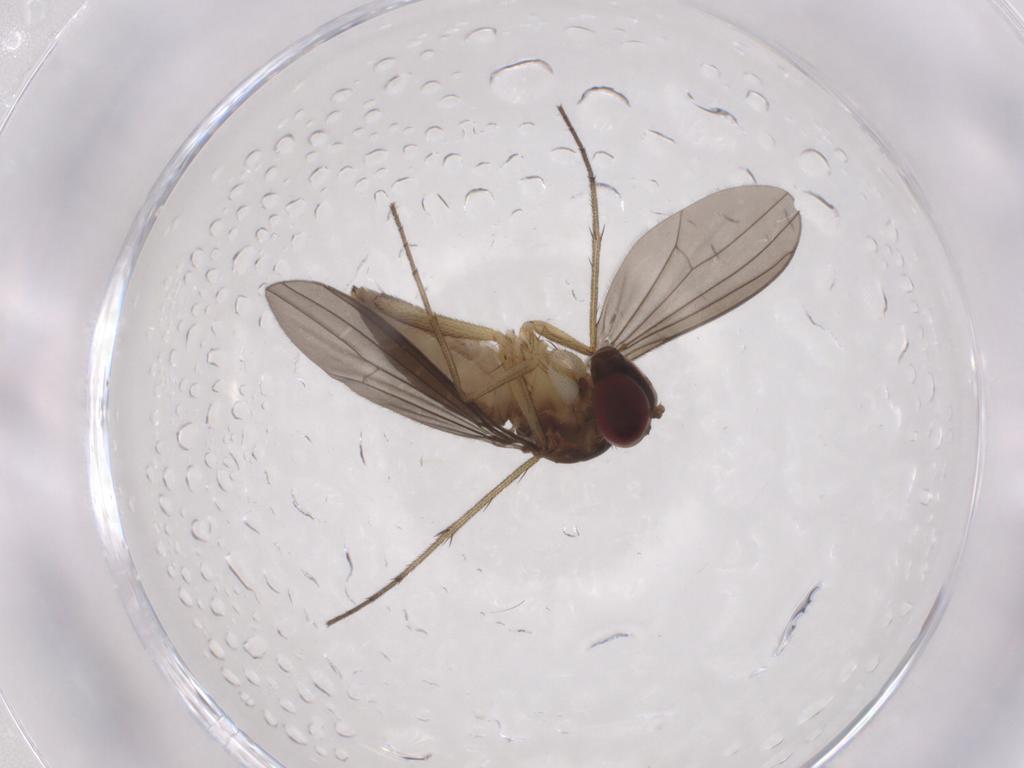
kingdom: Animalia
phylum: Arthropoda
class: Insecta
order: Diptera
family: Dolichopodidae
